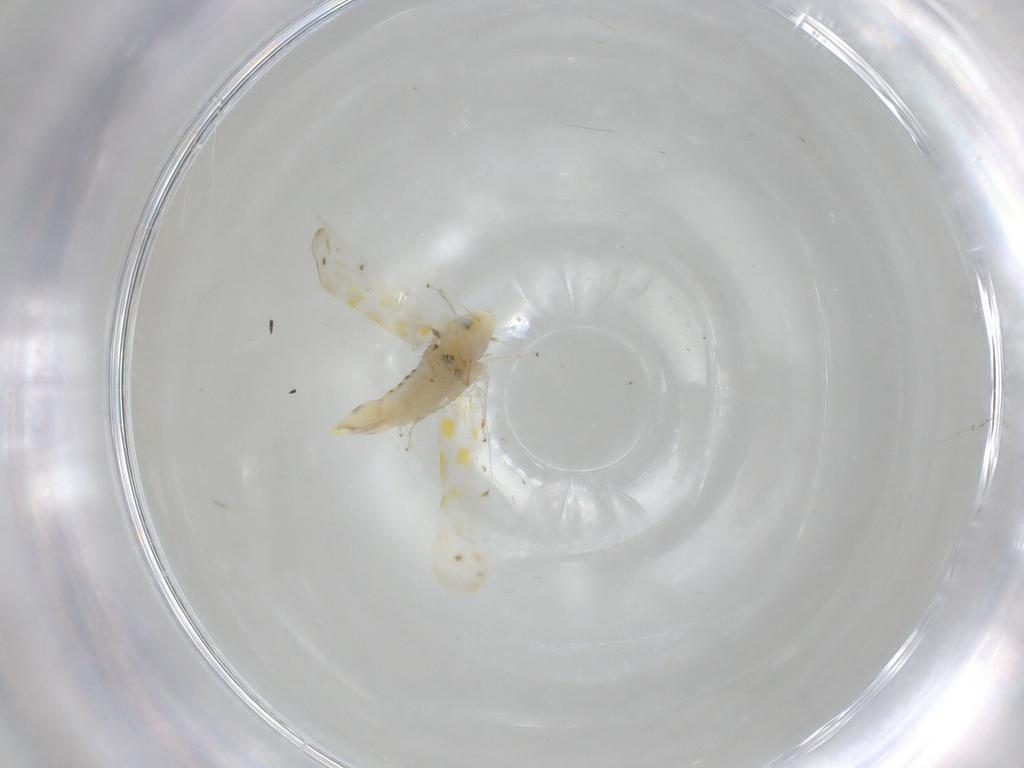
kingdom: Animalia
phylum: Arthropoda
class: Insecta
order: Hemiptera
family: Cicadellidae
